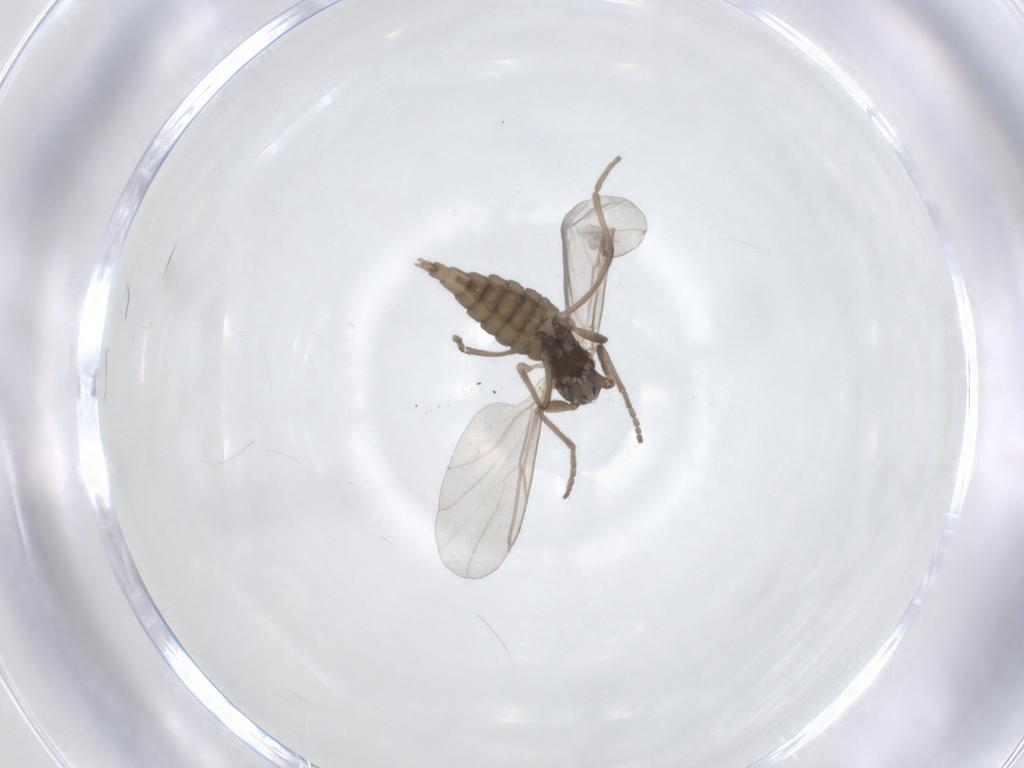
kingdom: Animalia
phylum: Arthropoda
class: Insecta
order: Diptera
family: Cecidomyiidae
